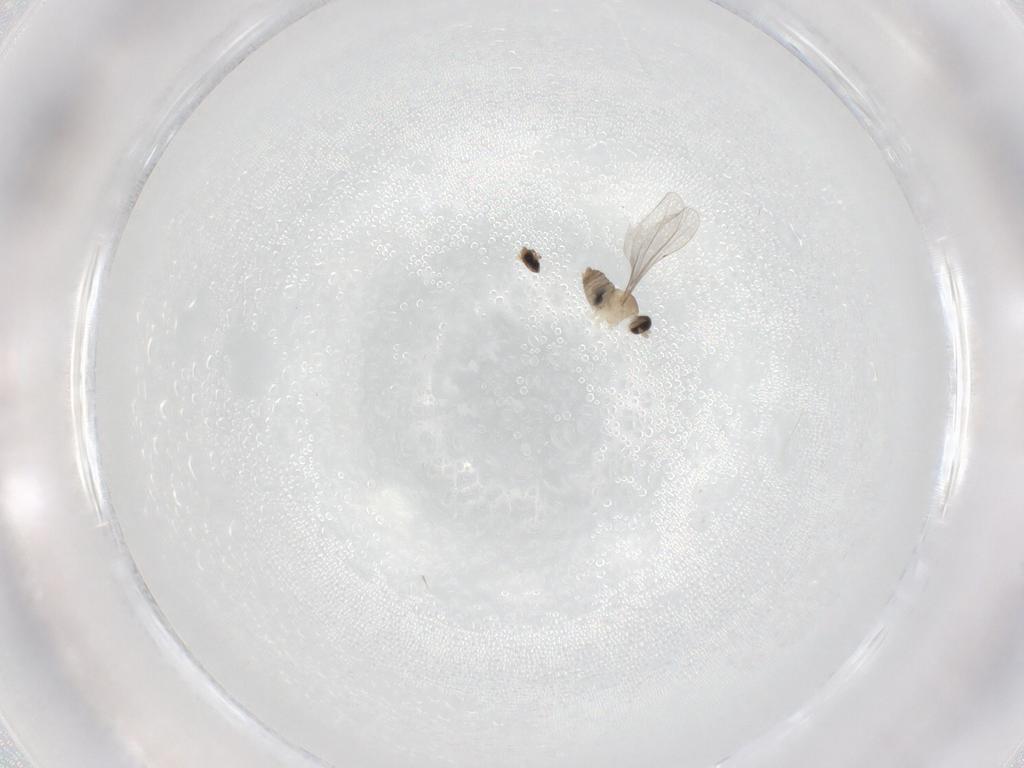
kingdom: Animalia
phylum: Arthropoda
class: Insecta
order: Diptera
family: Cecidomyiidae
